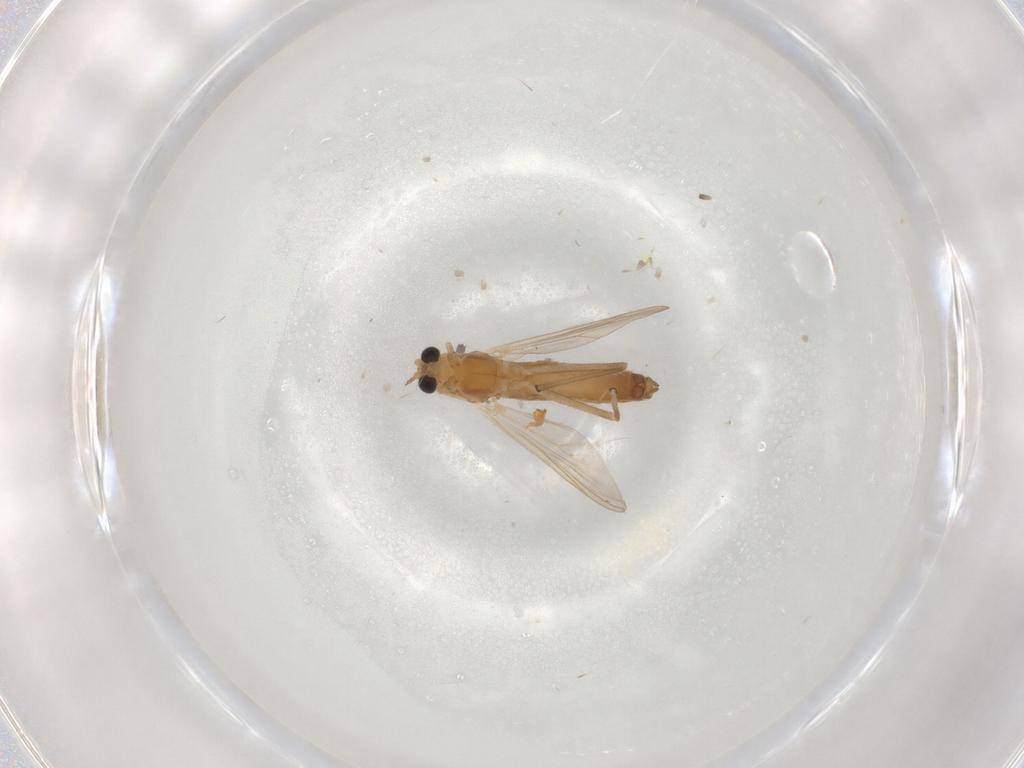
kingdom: Animalia
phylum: Arthropoda
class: Insecta
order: Diptera
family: Chironomidae
